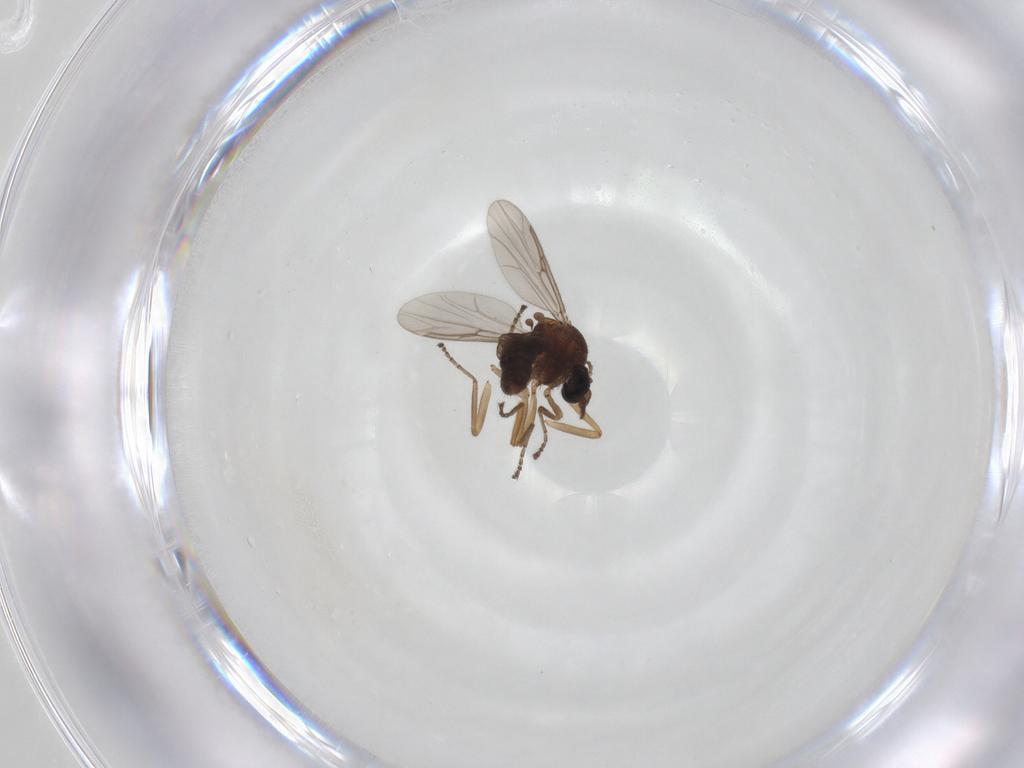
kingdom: Animalia
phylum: Arthropoda
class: Insecta
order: Diptera
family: Ceratopogonidae
